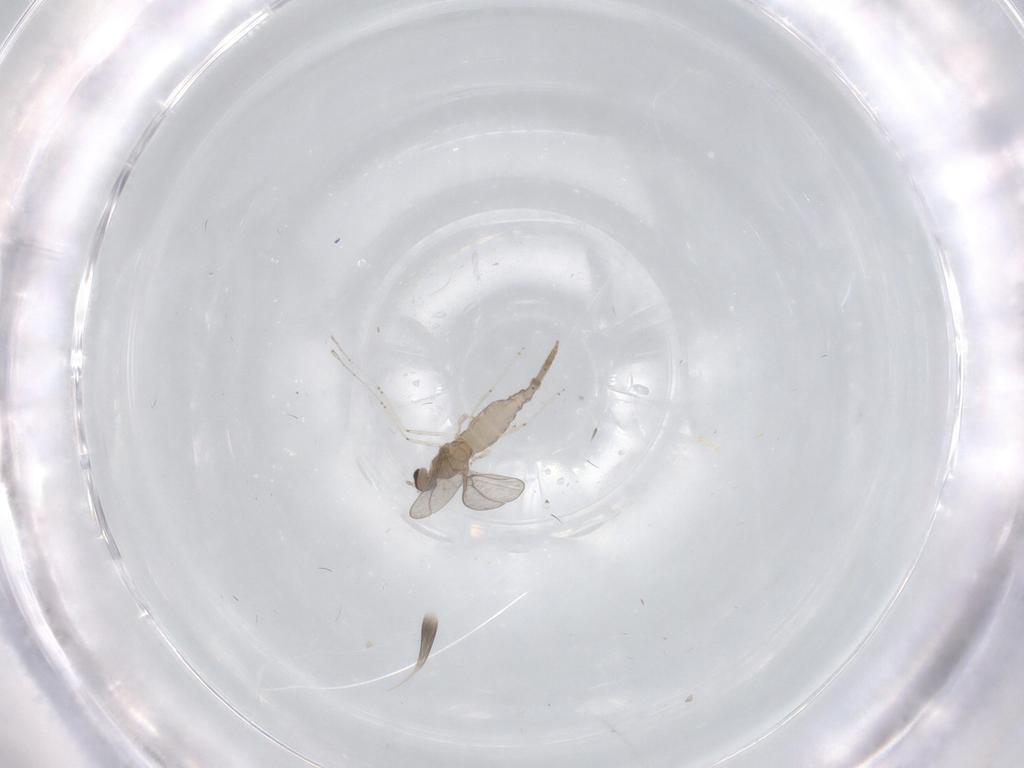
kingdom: Animalia
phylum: Arthropoda
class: Insecta
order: Diptera
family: Cecidomyiidae
